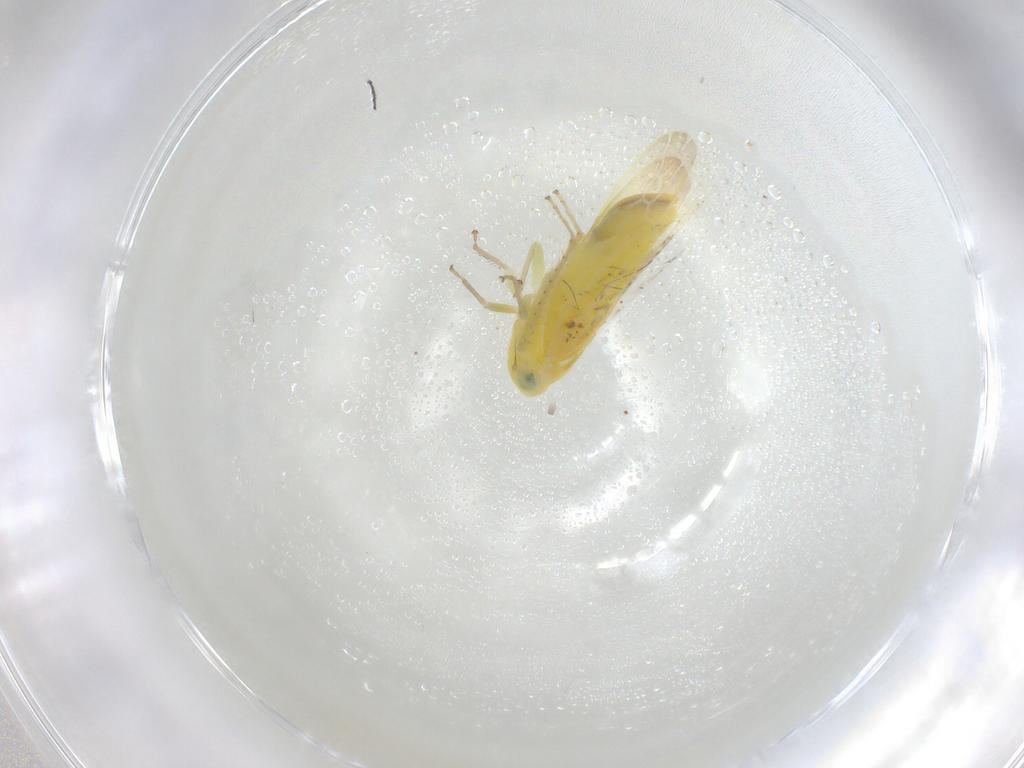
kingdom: Animalia
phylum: Arthropoda
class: Insecta
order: Hemiptera
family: Cicadellidae
